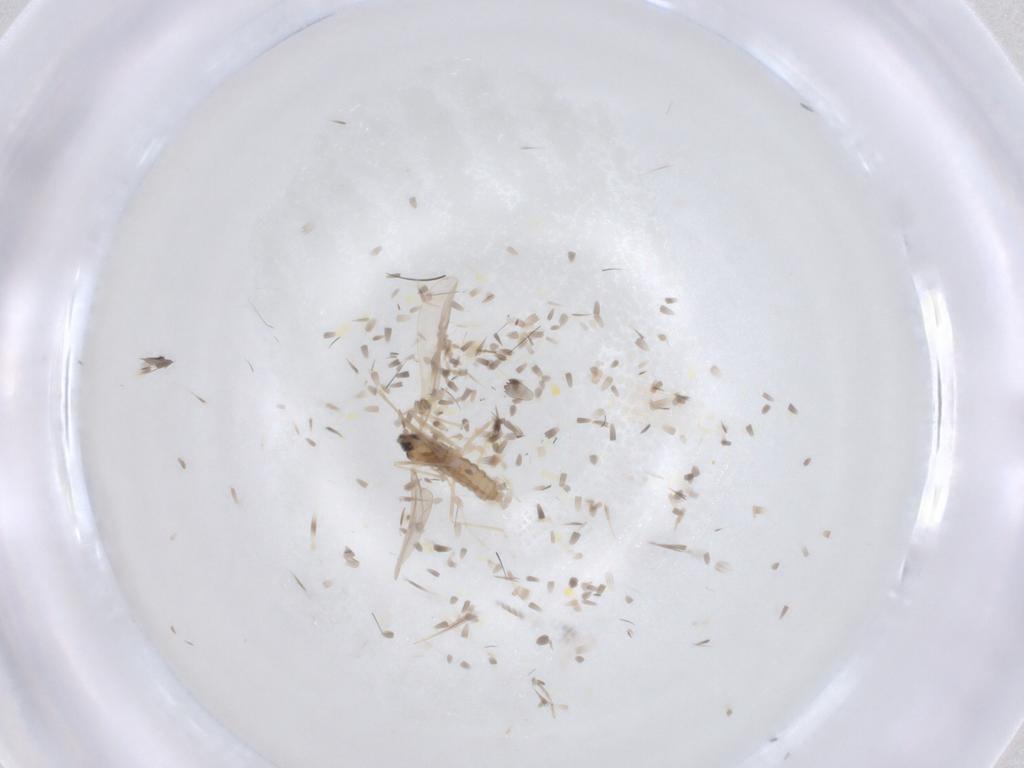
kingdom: Animalia
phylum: Arthropoda
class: Insecta
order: Diptera
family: Cecidomyiidae
